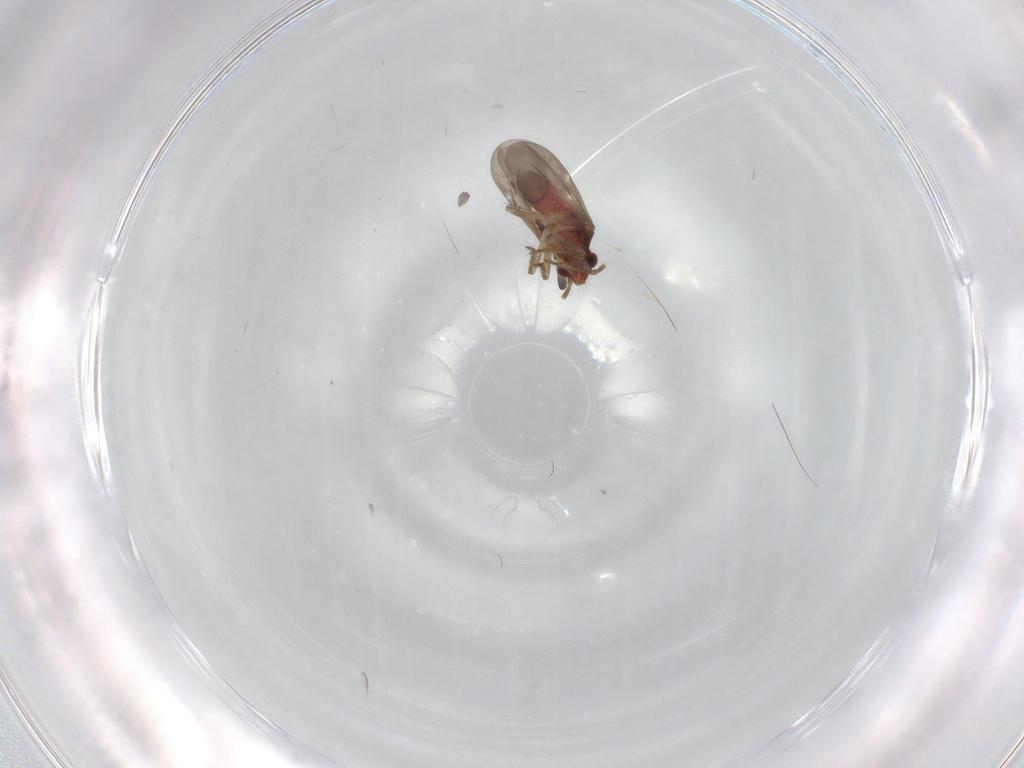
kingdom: Animalia
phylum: Arthropoda
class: Insecta
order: Hemiptera
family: Ceratocombidae
